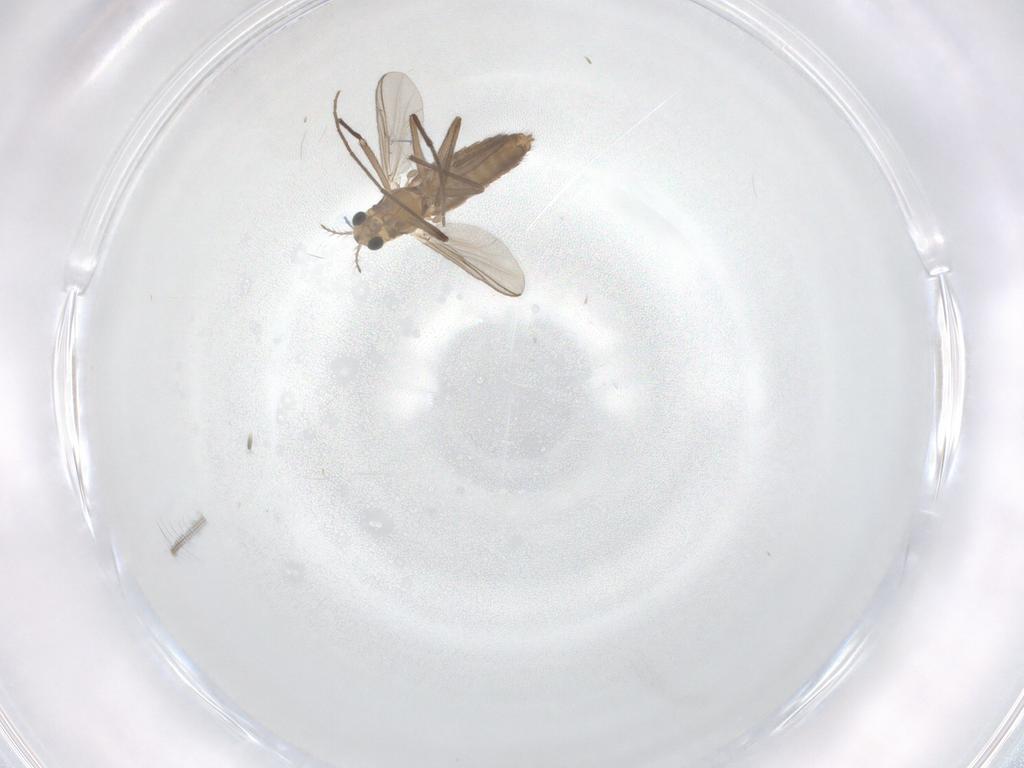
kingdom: Animalia
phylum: Arthropoda
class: Insecta
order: Diptera
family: Chironomidae
